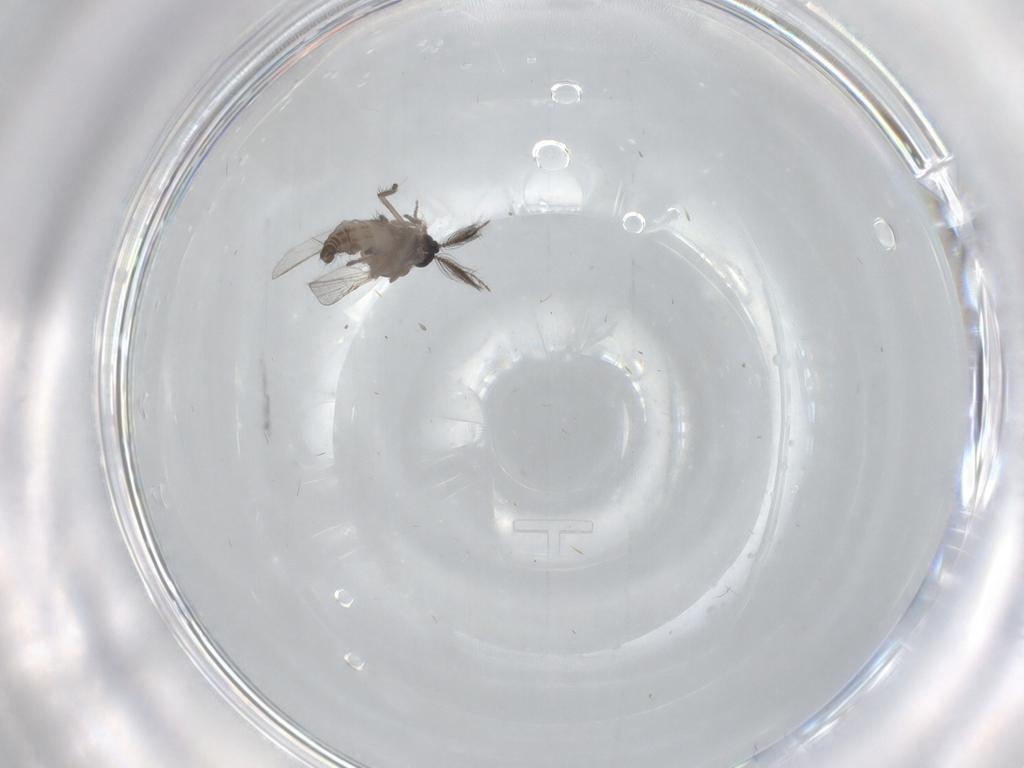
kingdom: Animalia
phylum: Arthropoda
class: Insecta
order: Diptera
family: Ceratopogonidae
